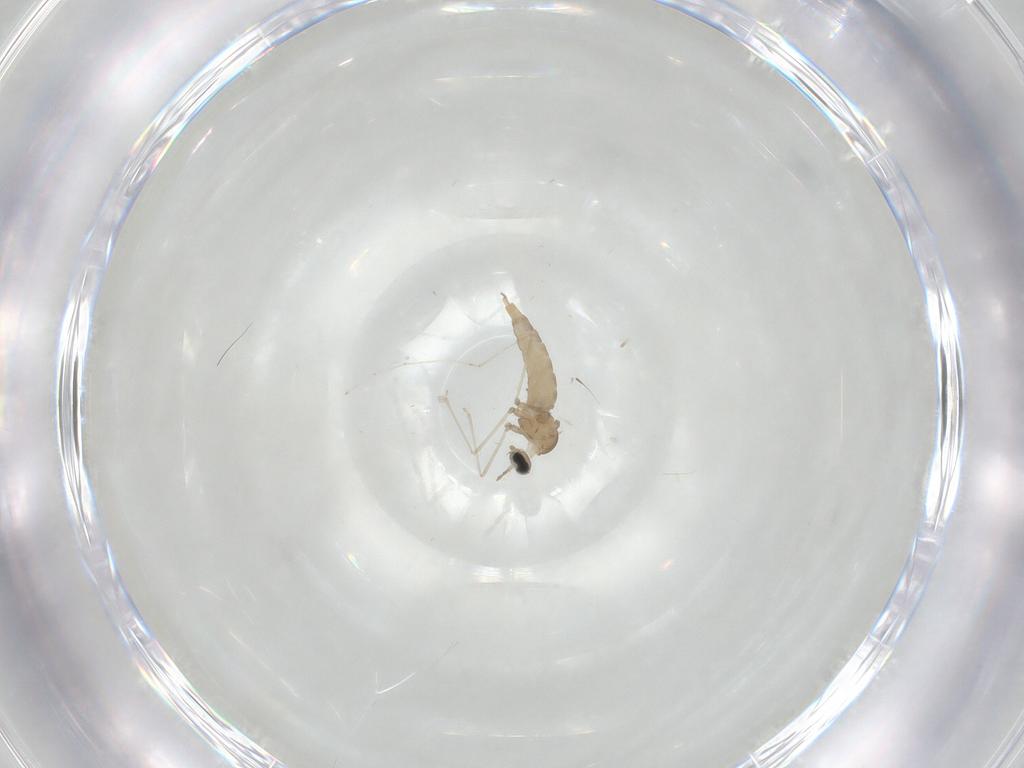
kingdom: Animalia
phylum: Arthropoda
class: Insecta
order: Diptera
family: Cecidomyiidae
